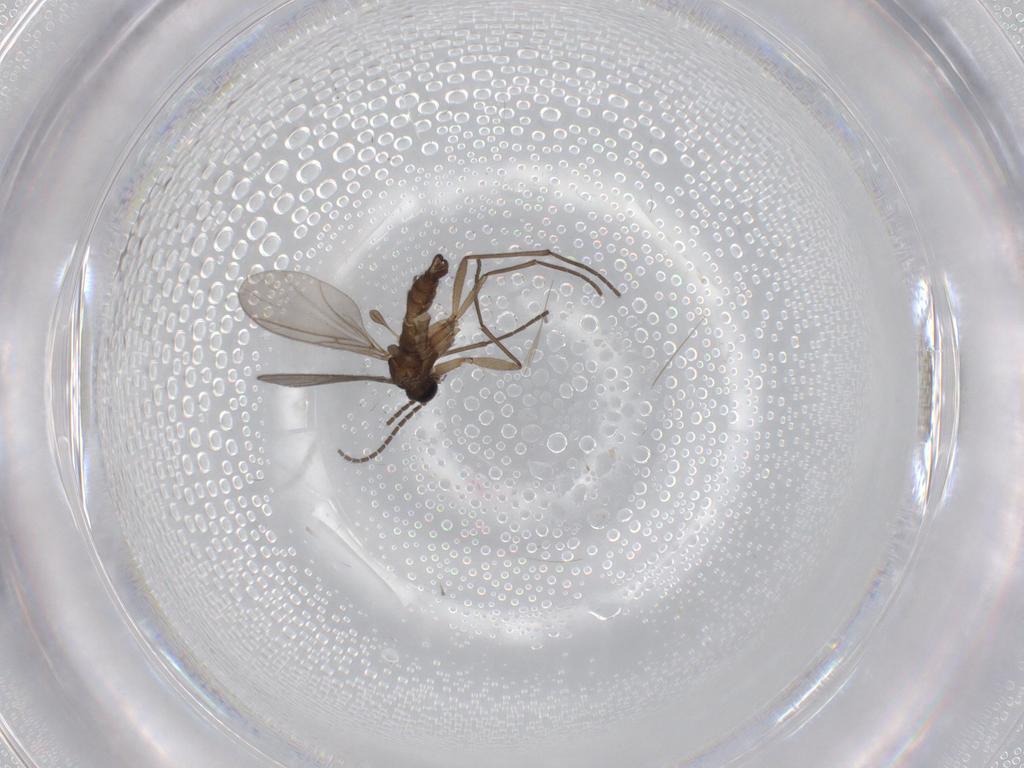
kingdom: Animalia
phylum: Arthropoda
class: Insecta
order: Diptera
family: Sciaridae
